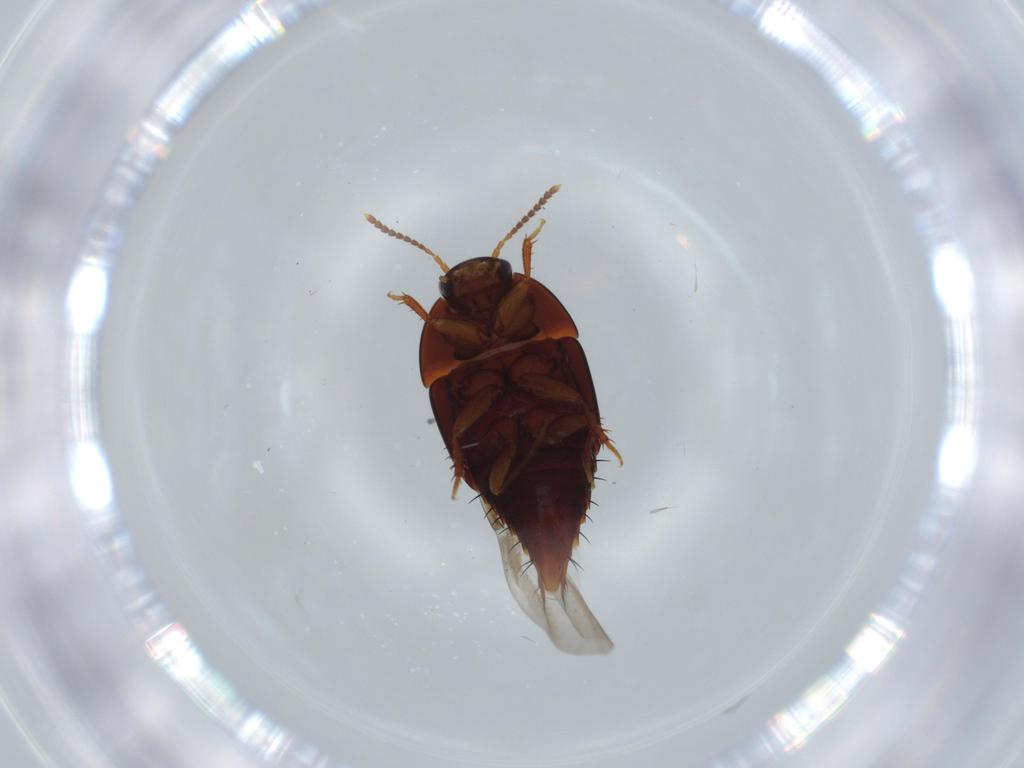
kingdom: Animalia
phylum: Arthropoda
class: Insecta
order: Coleoptera
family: Staphylinidae
